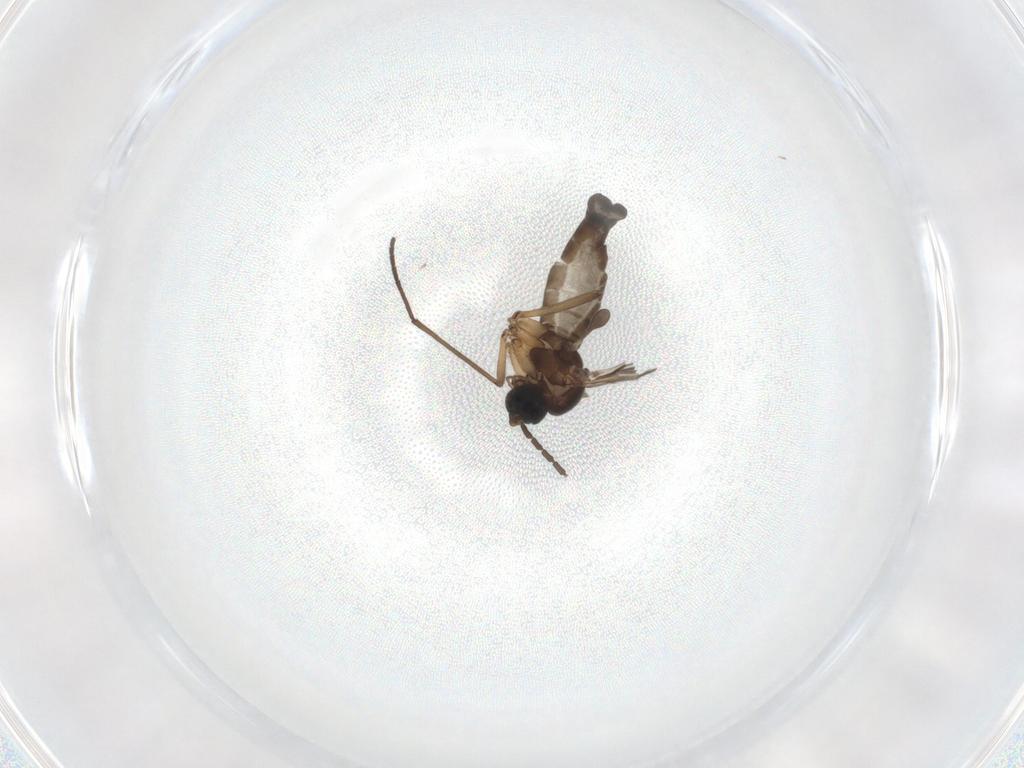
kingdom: Animalia
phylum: Arthropoda
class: Insecta
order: Diptera
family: Sciaridae
